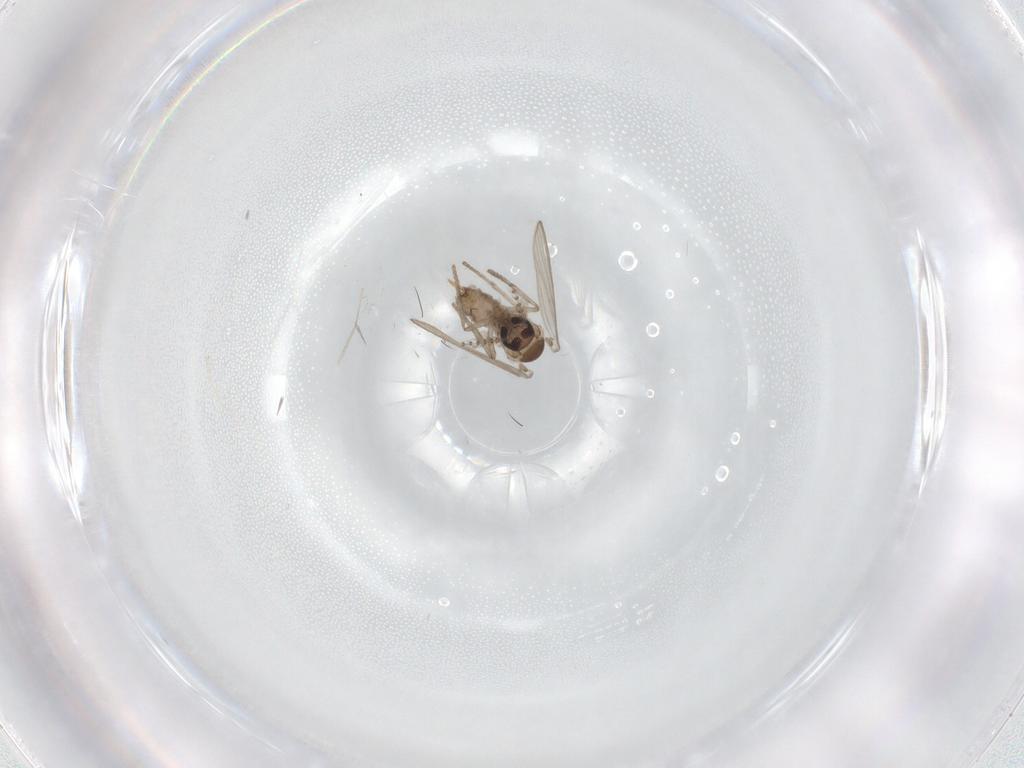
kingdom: Animalia
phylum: Arthropoda
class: Insecta
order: Diptera
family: Psychodidae
